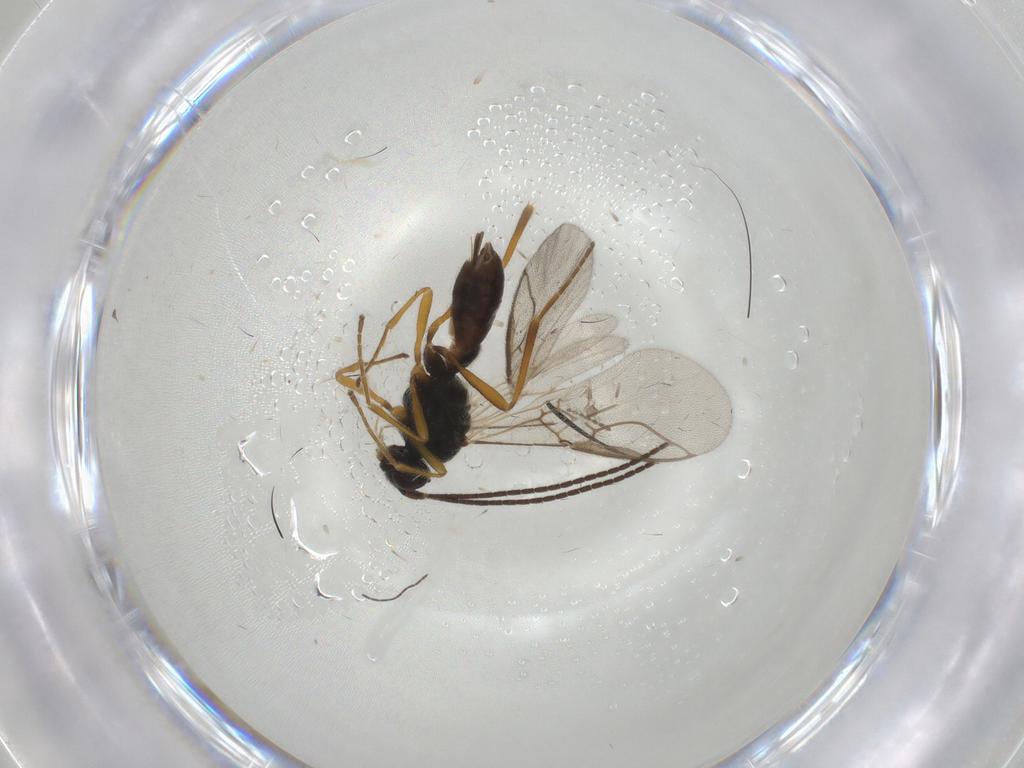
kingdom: Animalia
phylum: Arthropoda
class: Insecta
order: Hymenoptera
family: Braconidae
